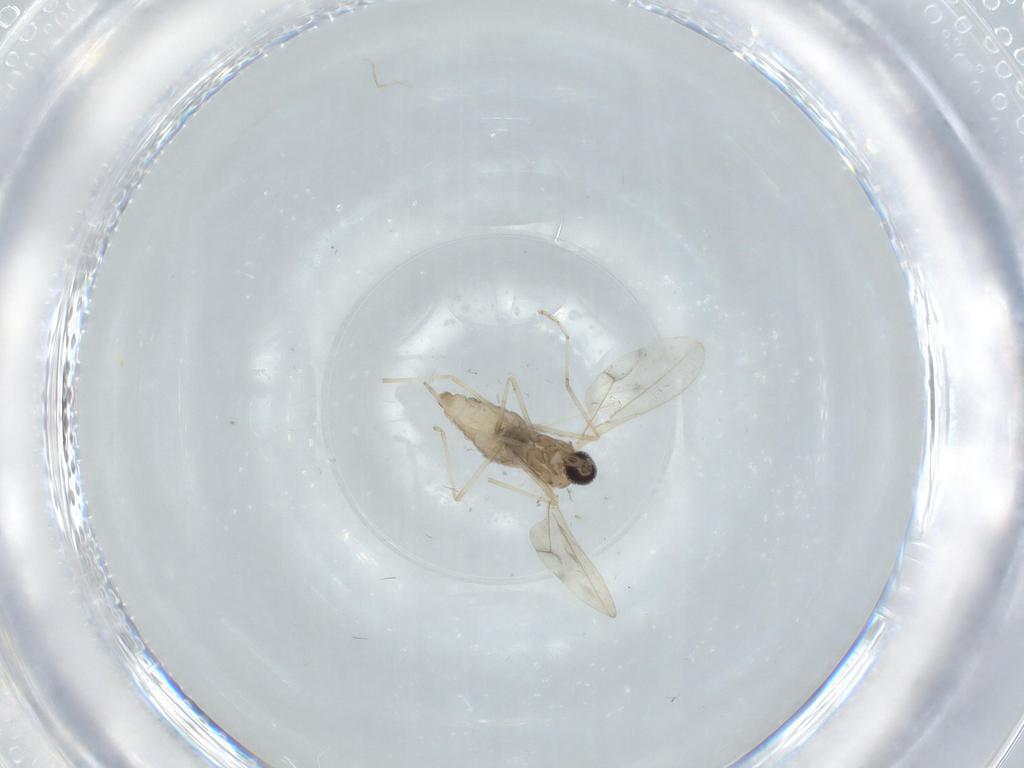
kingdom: Animalia
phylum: Arthropoda
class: Insecta
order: Diptera
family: Cecidomyiidae
